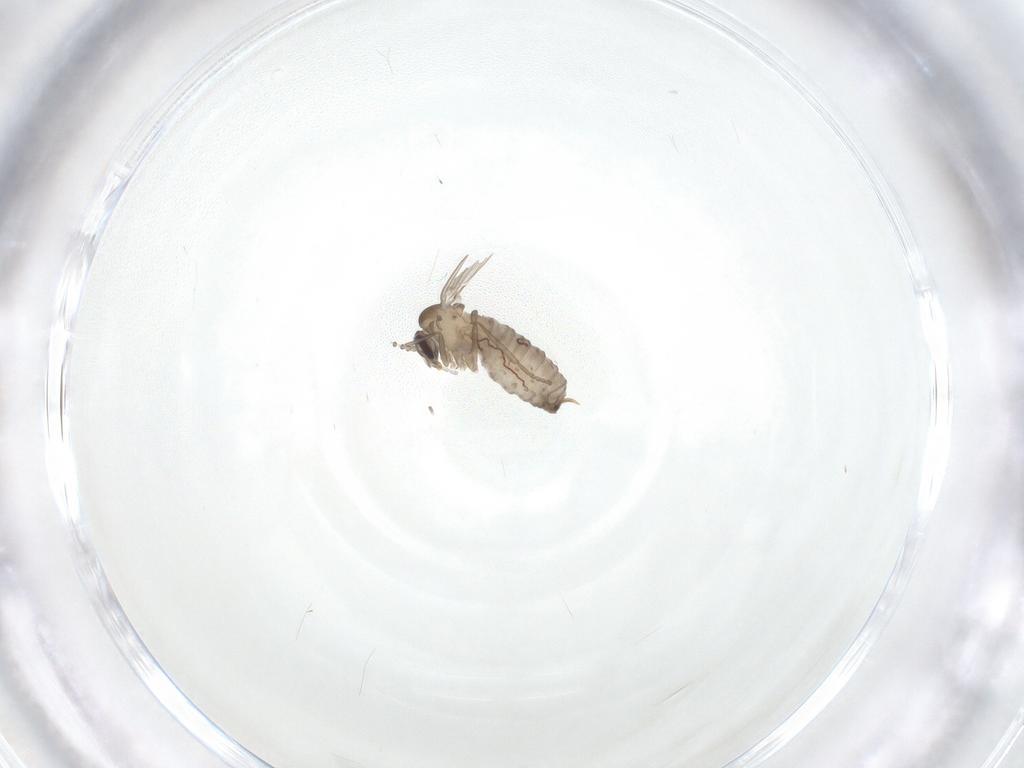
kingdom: Animalia
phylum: Arthropoda
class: Insecta
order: Diptera
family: Psychodidae
